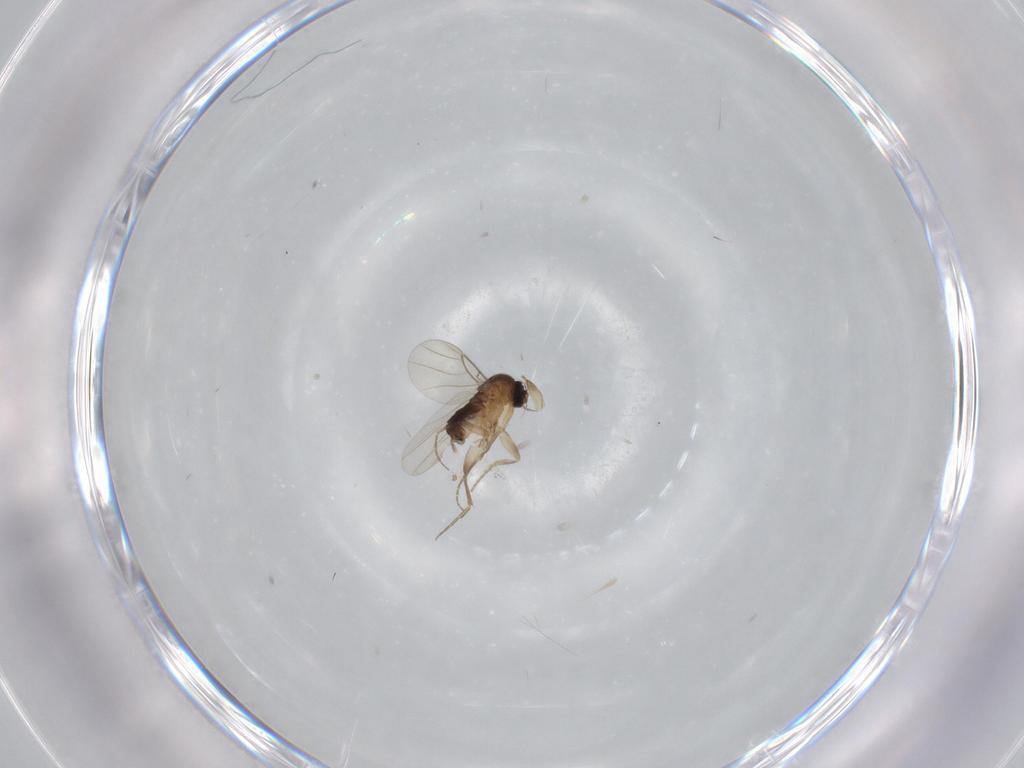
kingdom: Animalia
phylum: Arthropoda
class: Insecta
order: Diptera
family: Phoridae
